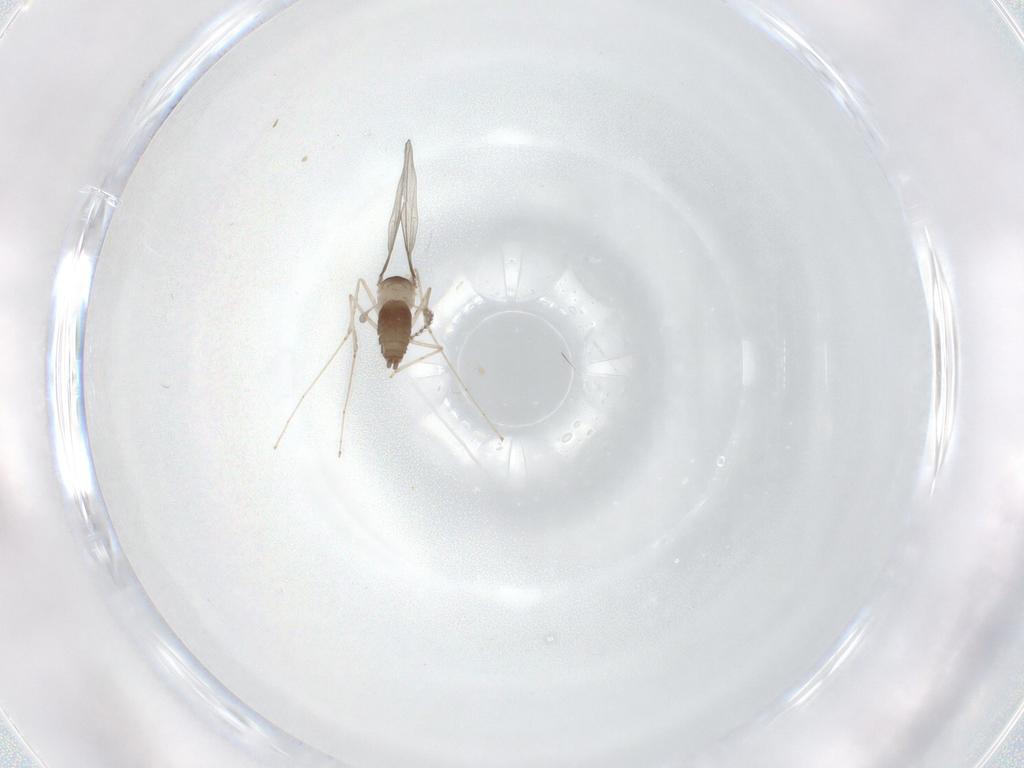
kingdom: Animalia
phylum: Arthropoda
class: Insecta
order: Diptera
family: Cecidomyiidae
